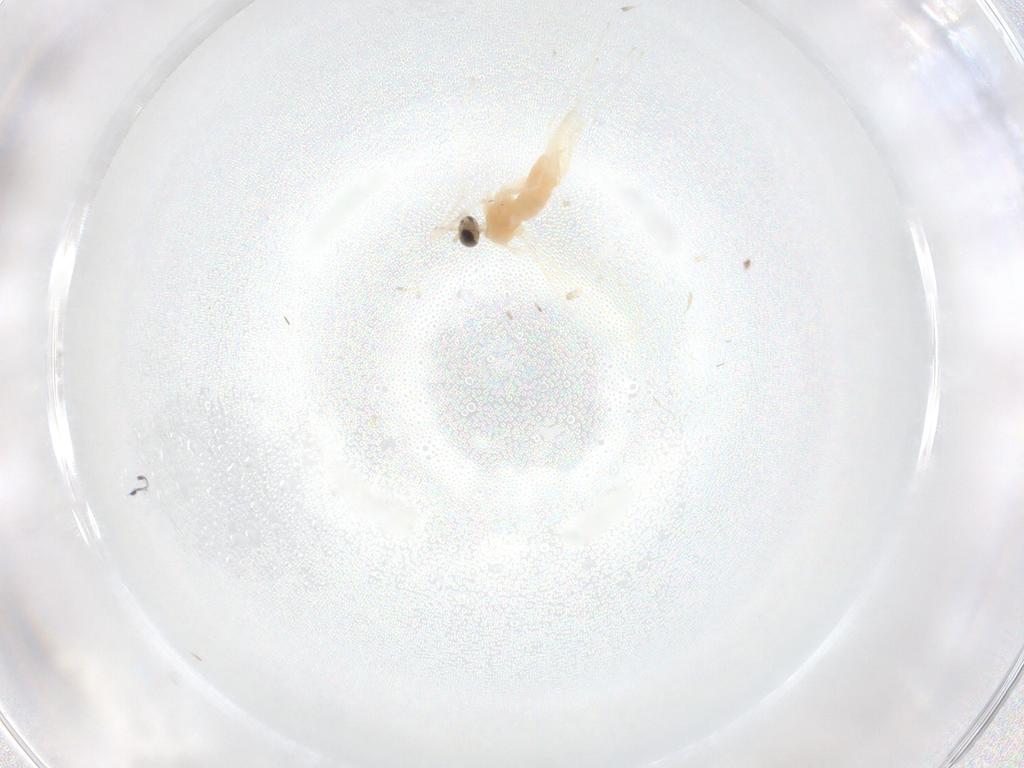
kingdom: Animalia
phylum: Arthropoda
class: Insecta
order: Diptera
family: Cecidomyiidae
